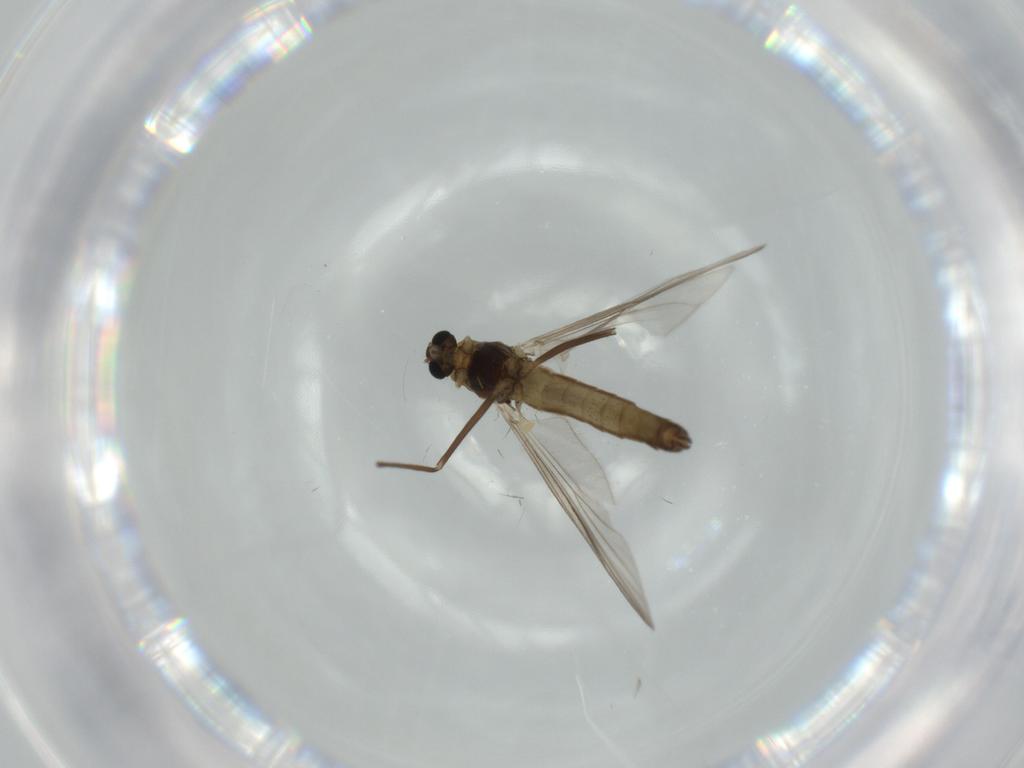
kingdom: Animalia
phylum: Arthropoda
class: Insecta
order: Diptera
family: Chironomidae
